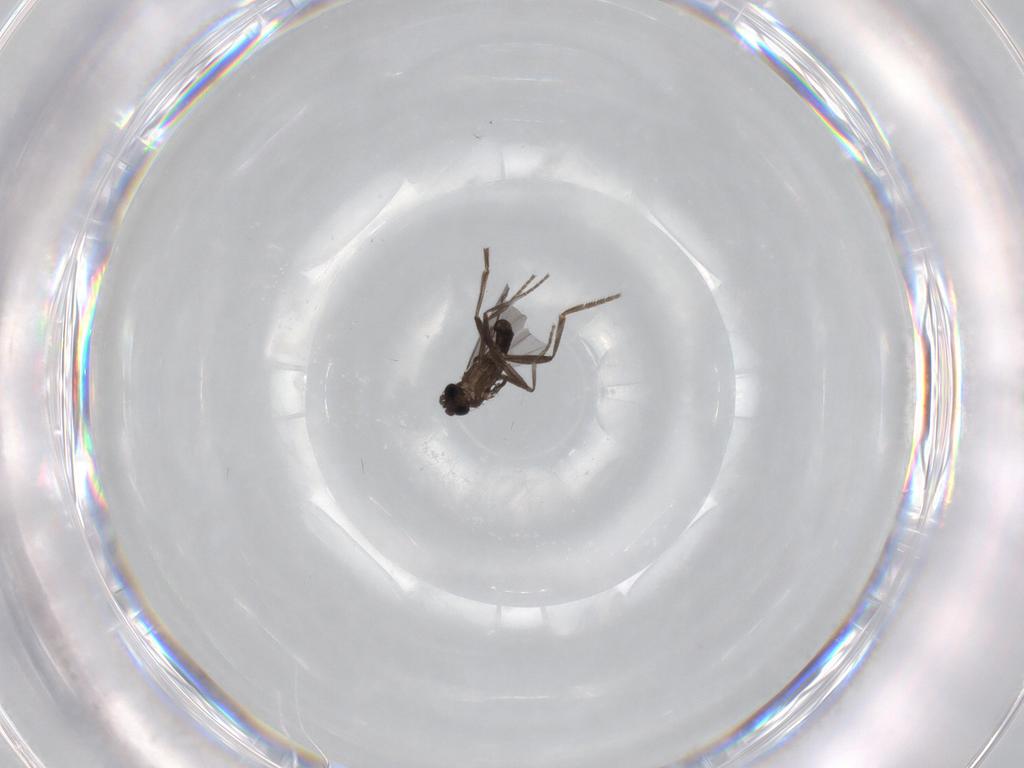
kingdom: Animalia
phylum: Arthropoda
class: Insecta
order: Diptera
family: Phoridae
